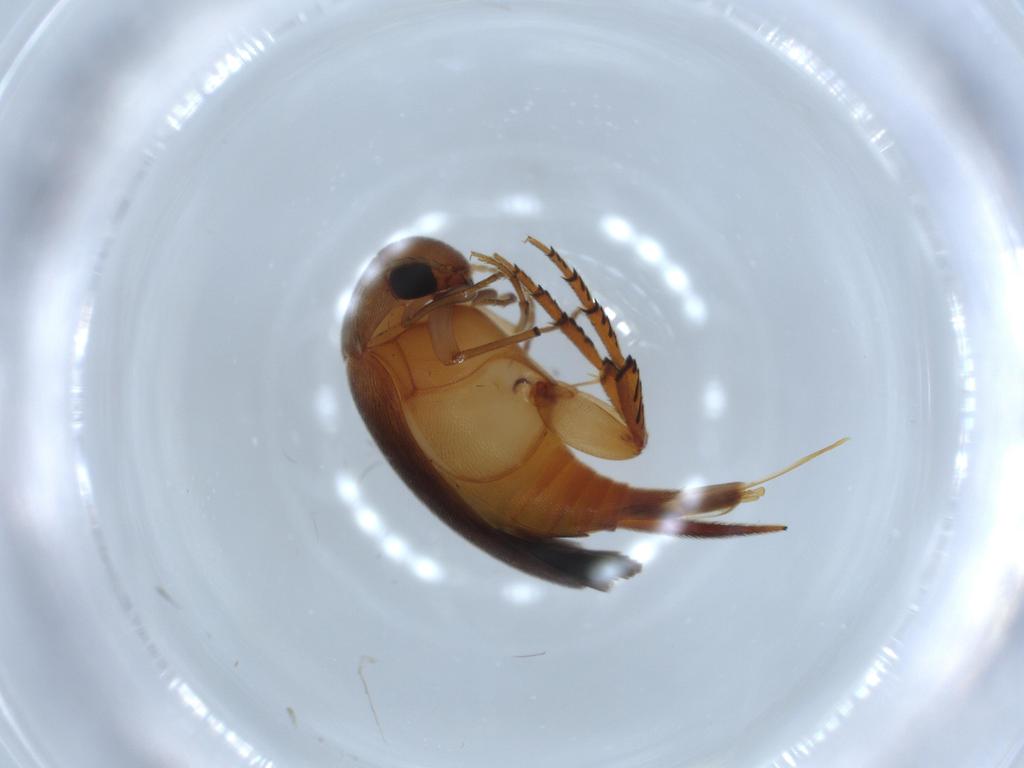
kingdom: Animalia
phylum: Arthropoda
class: Insecta
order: Coleoptera
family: Mordellidae
